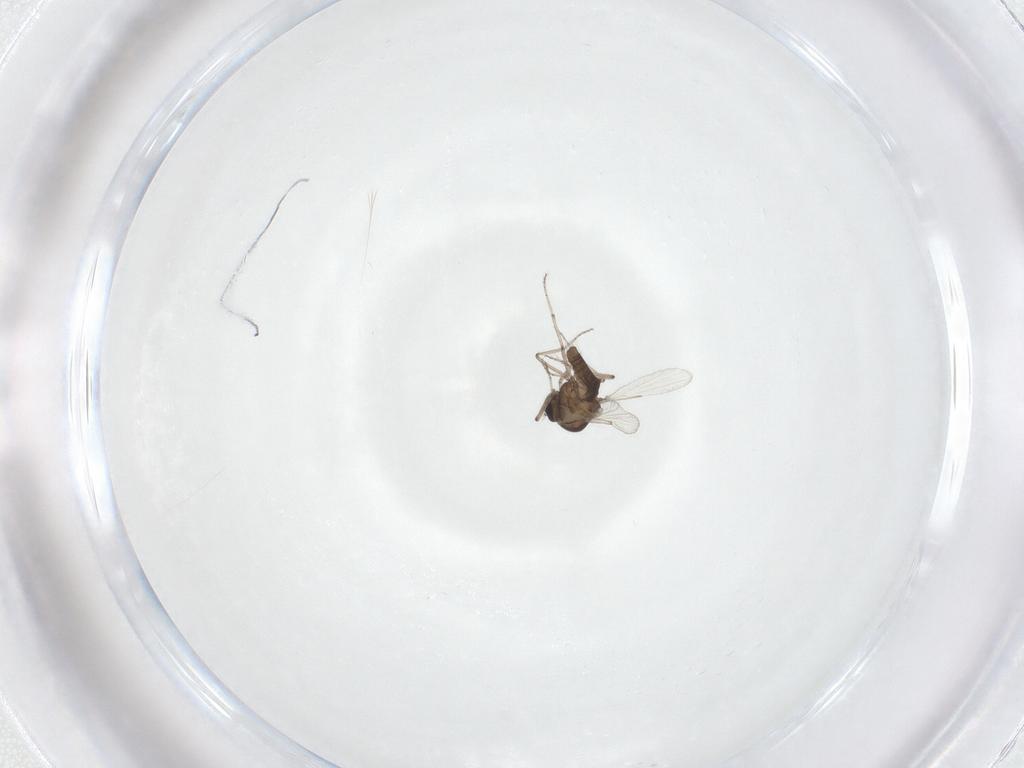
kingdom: Animalia
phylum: Arthropoda
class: Insecta
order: Diptera
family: Ceratopogonidae
